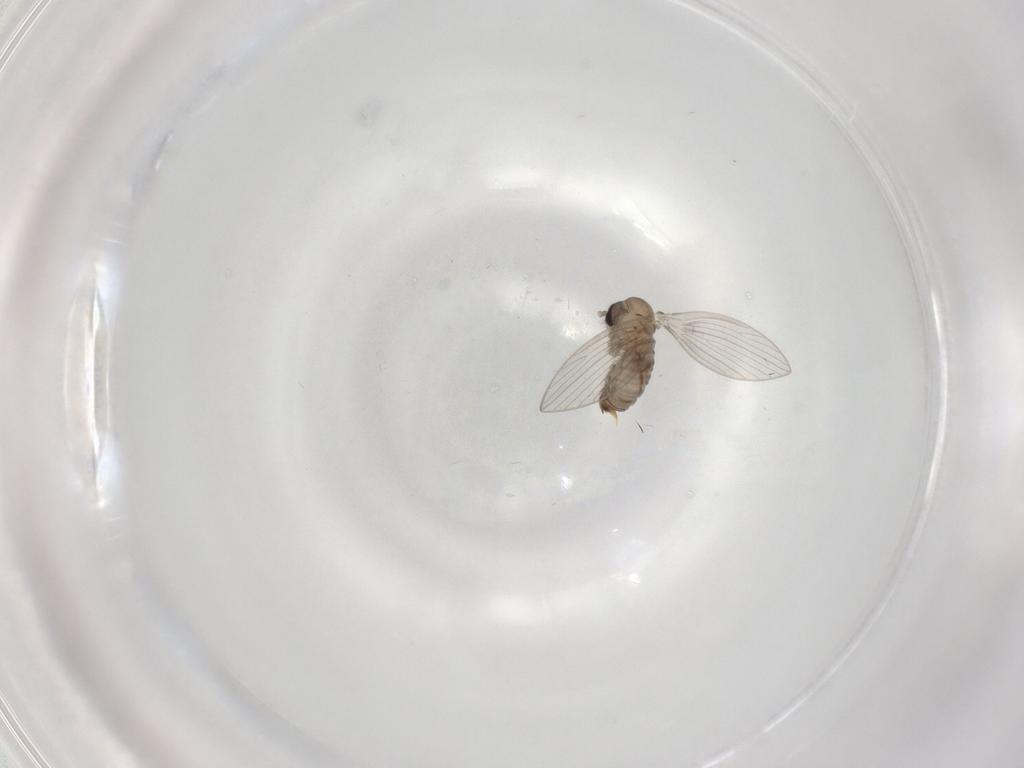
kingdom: Animalia
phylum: Arthropoda
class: Insecta
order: Diptera
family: Psychodidae
